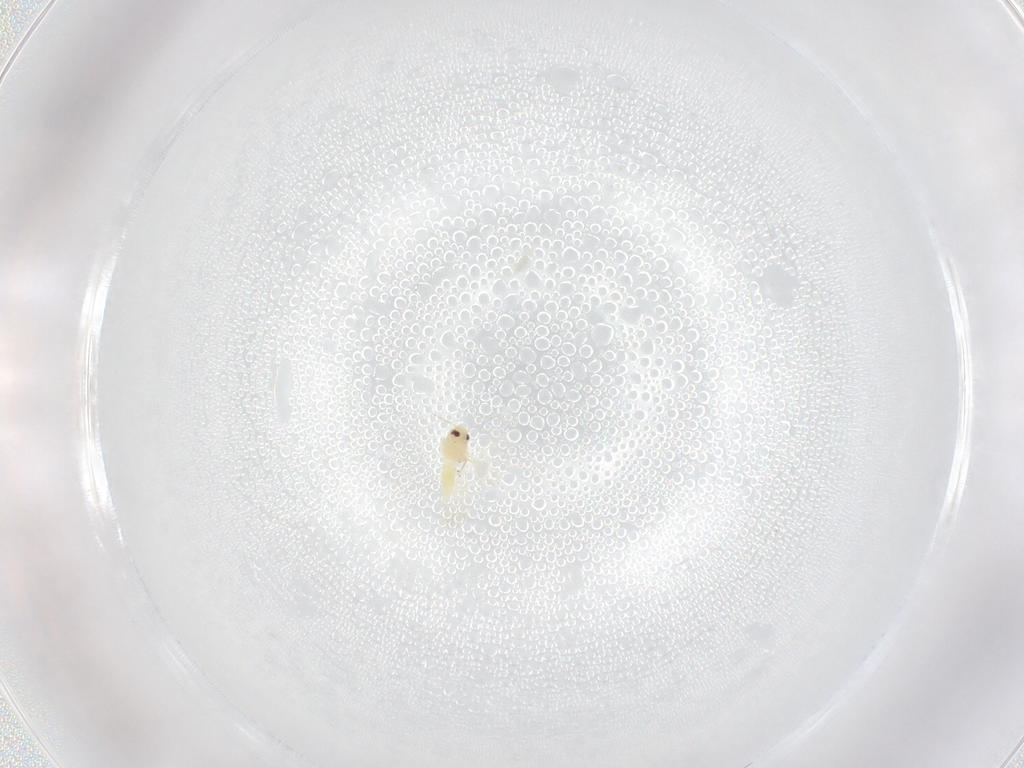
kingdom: Animalia
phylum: Arthropoda
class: Insecta
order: Hemiptera
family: Aleyrodidae
